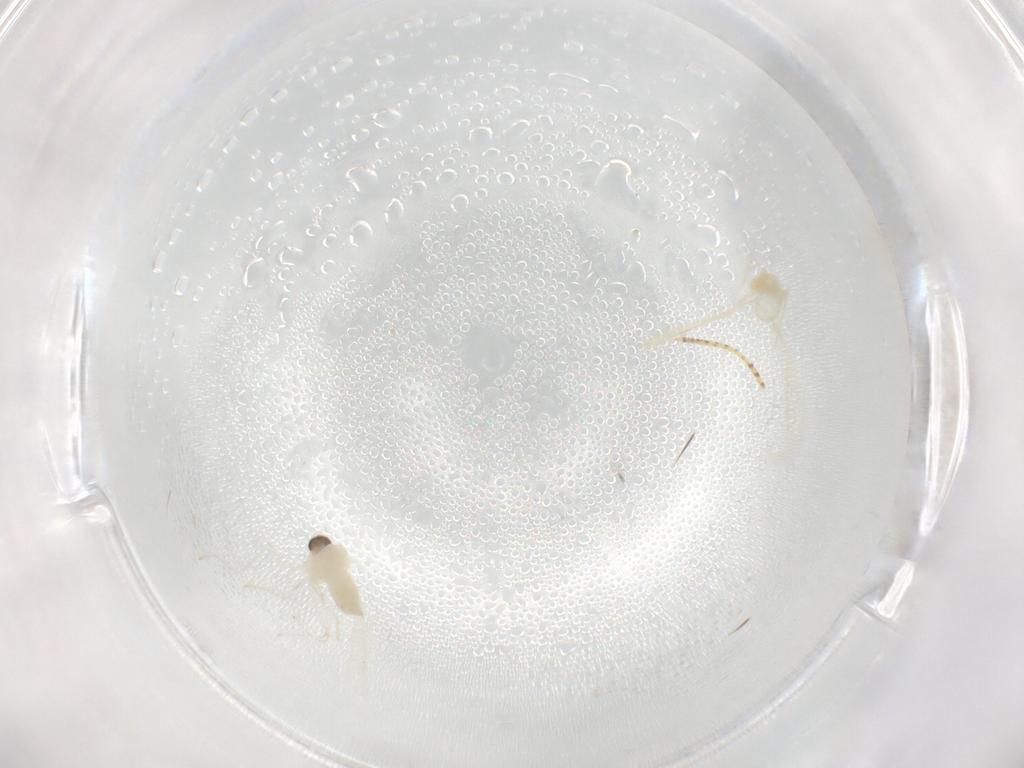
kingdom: Animalia
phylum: Arthropoda
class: Insecta
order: Diptera
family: Cecidomyiidae
